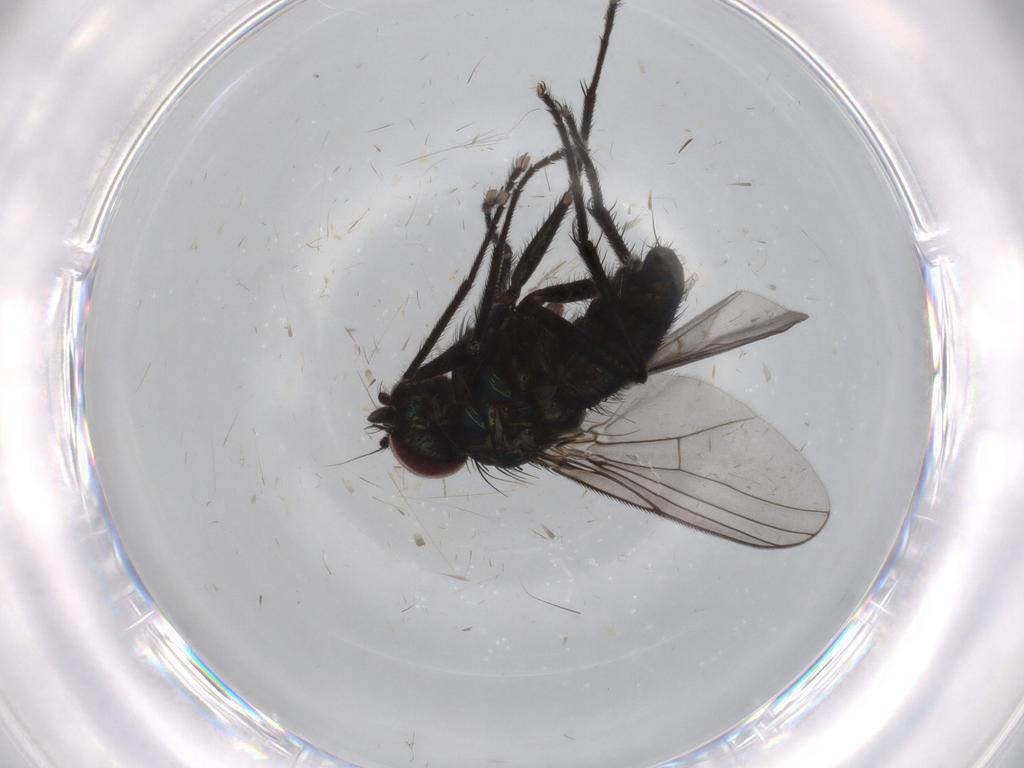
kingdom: Animalia
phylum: Arthropoda
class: Insecta
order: Diptera
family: Dolichopodidae
